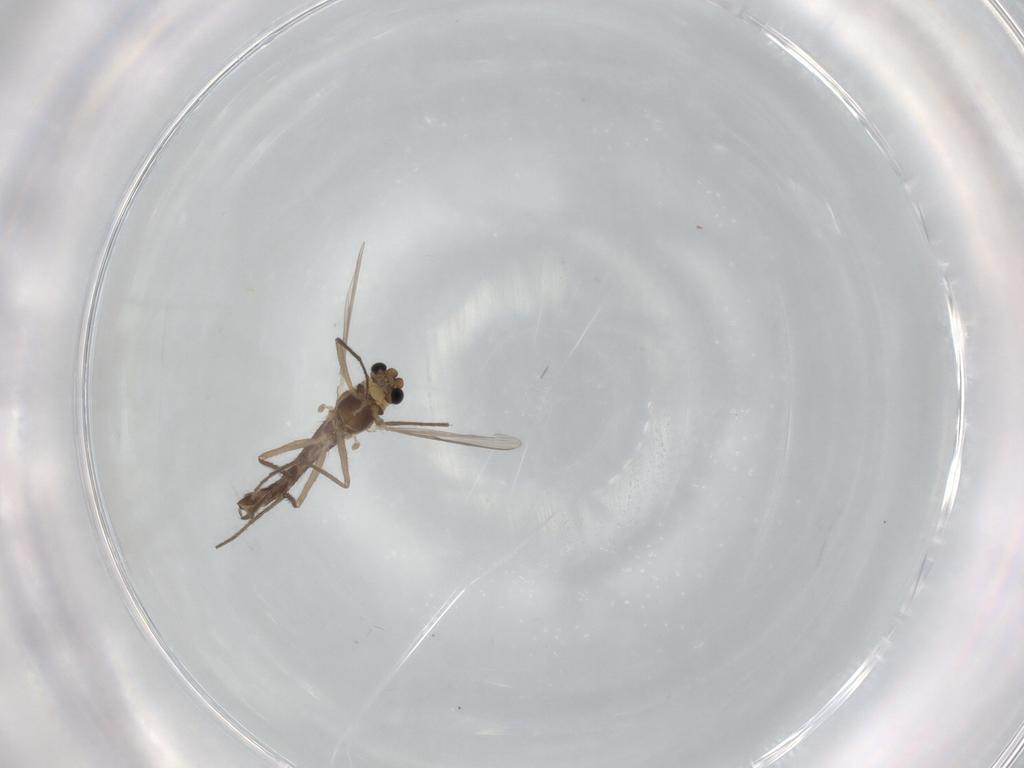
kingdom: Animalia
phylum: Arthropoda
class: Insecta
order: Diptera
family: Chironomidae
